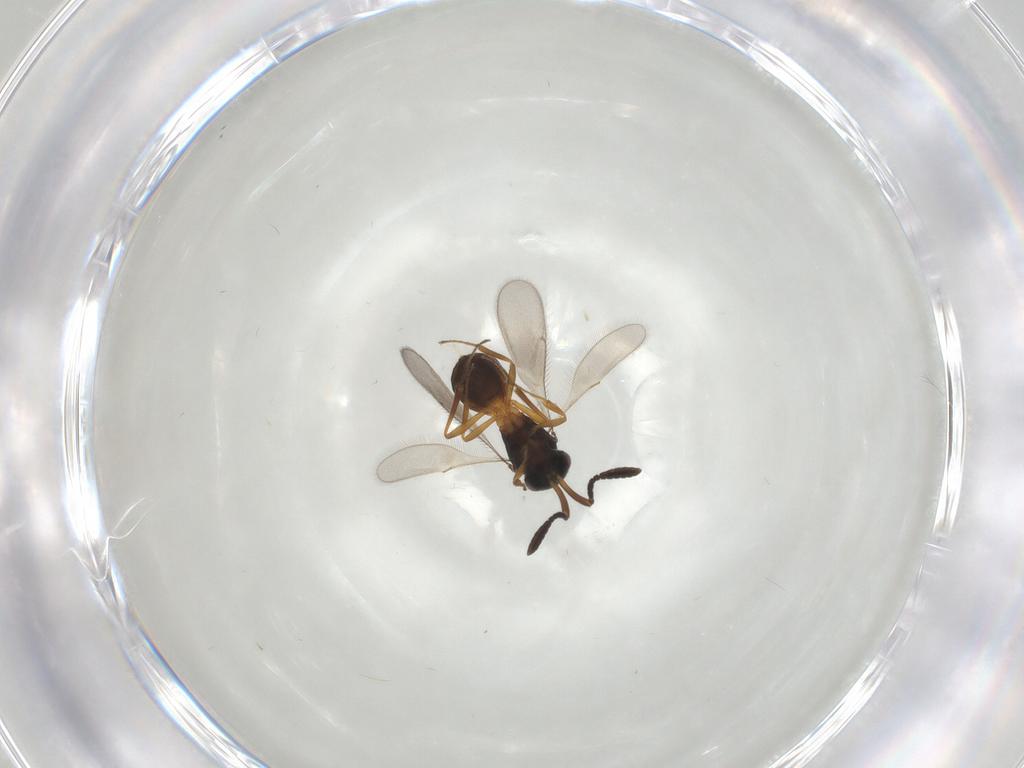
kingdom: Animalia
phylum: Arthropoda
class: Insecta
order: Hymenoptera
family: Scelionidae
